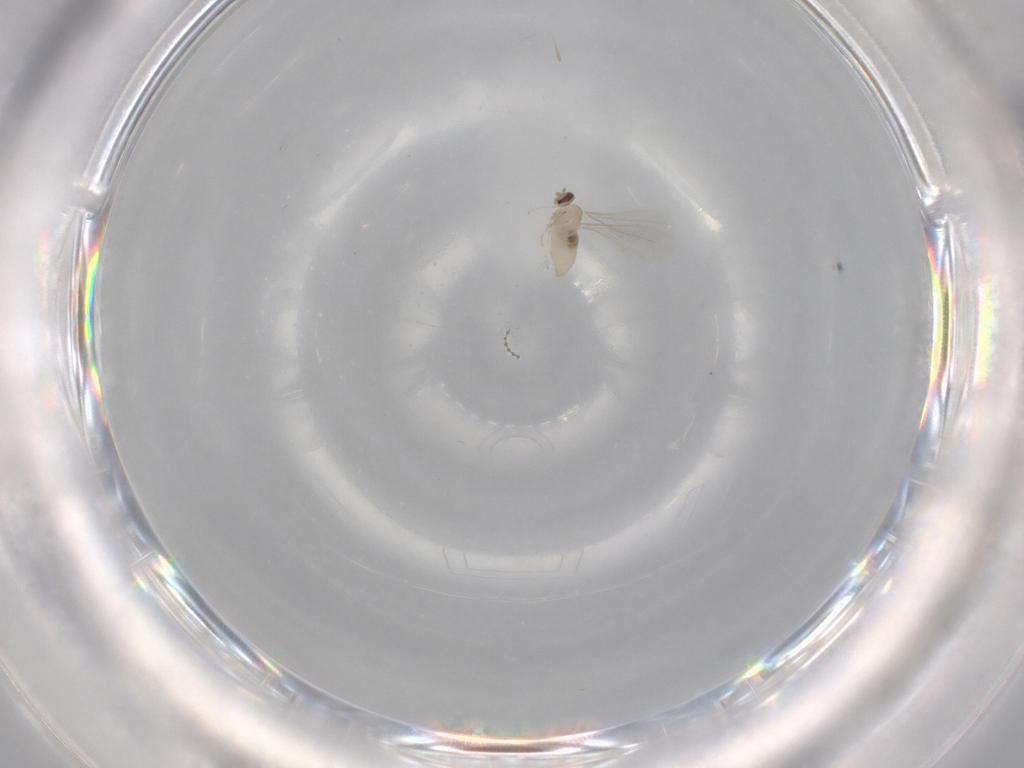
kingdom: Animalia
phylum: Arthropoda
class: Insecta
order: Diptera
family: Cecidomyiidae
